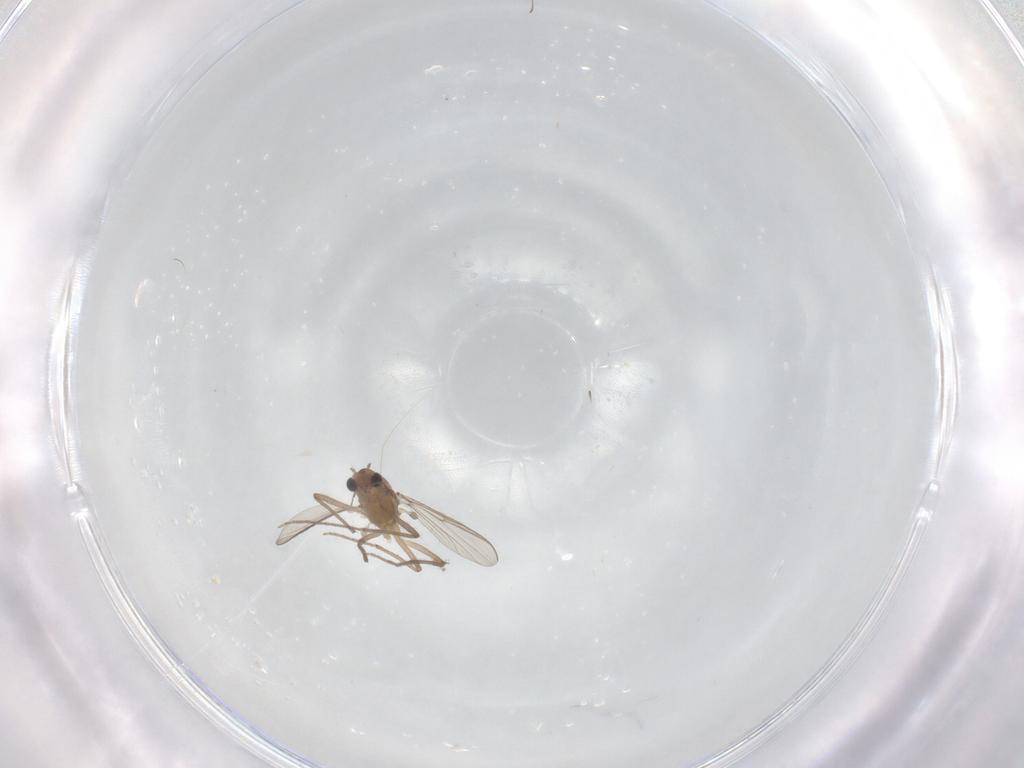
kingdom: Animalia
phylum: Arthropoda
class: Insecta
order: Diptera
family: Chironomidae
